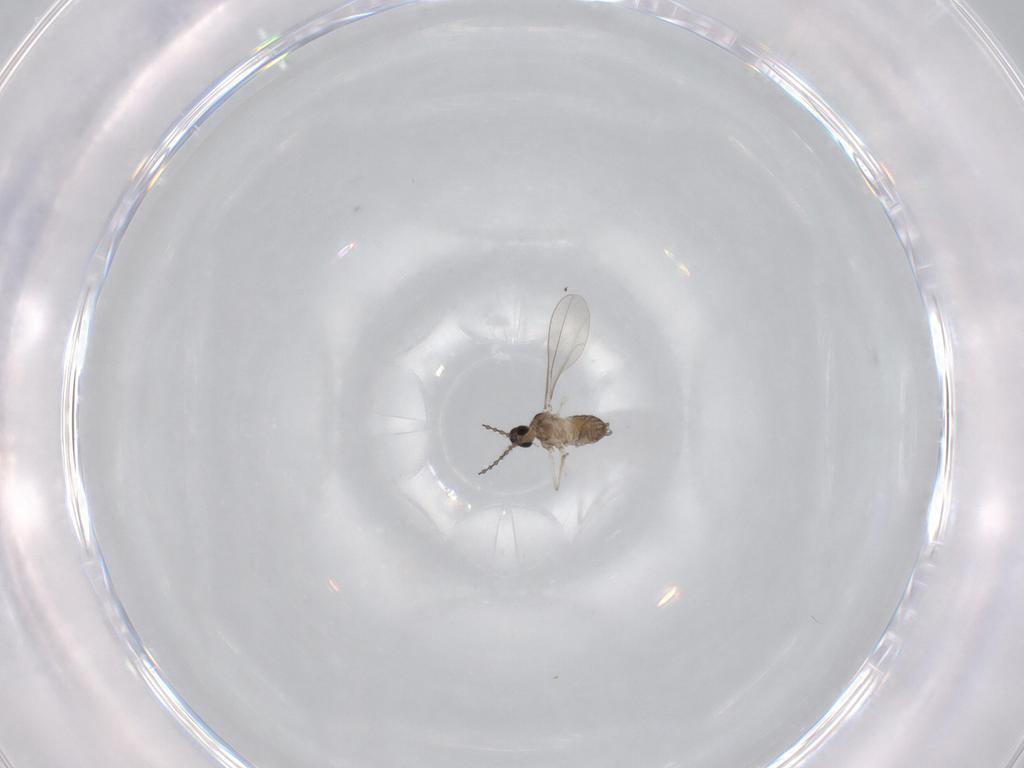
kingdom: Animalia
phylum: Arthropoda
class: Insecta
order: Diptera
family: Cecidomyiidae
